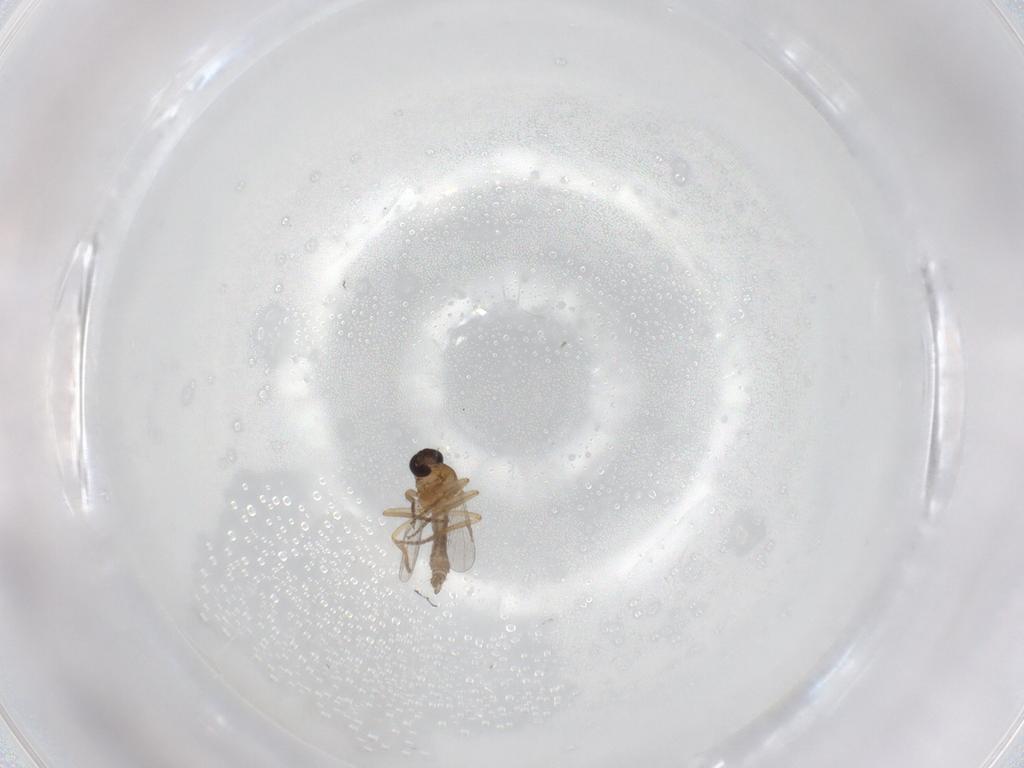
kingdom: Animalia
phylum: Arthropoda
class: Insecta
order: Diptera
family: Ceratopogonidae
